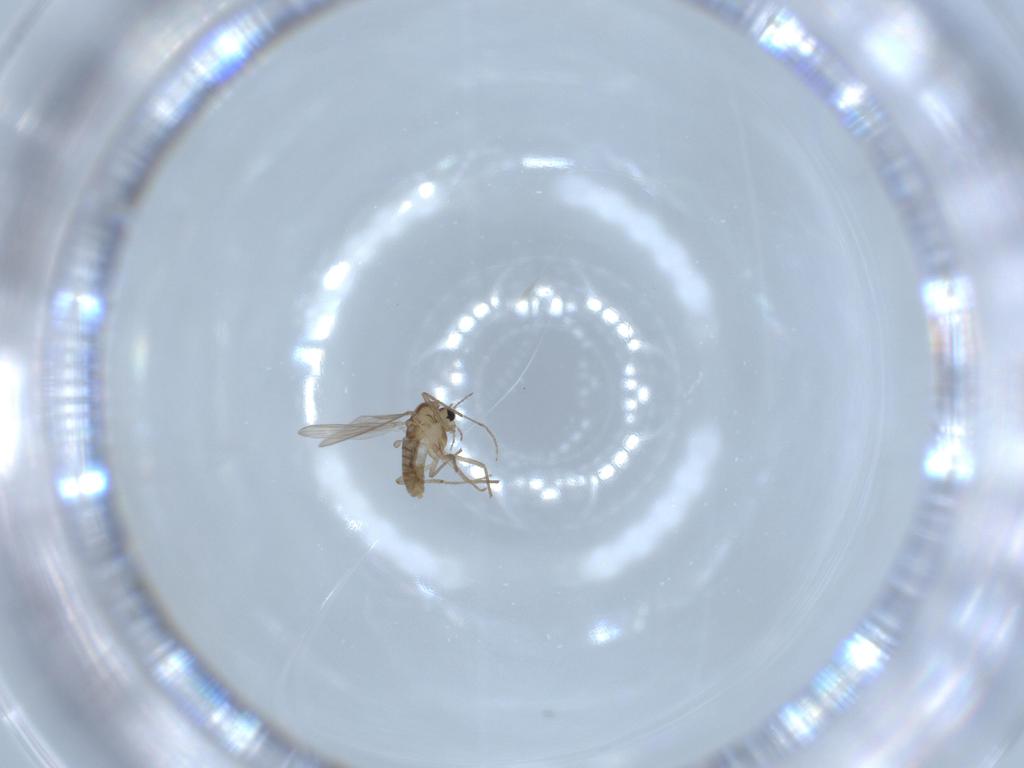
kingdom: Animalia
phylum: Arthropoda
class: Insecta
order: Diptera
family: Chironomidae
